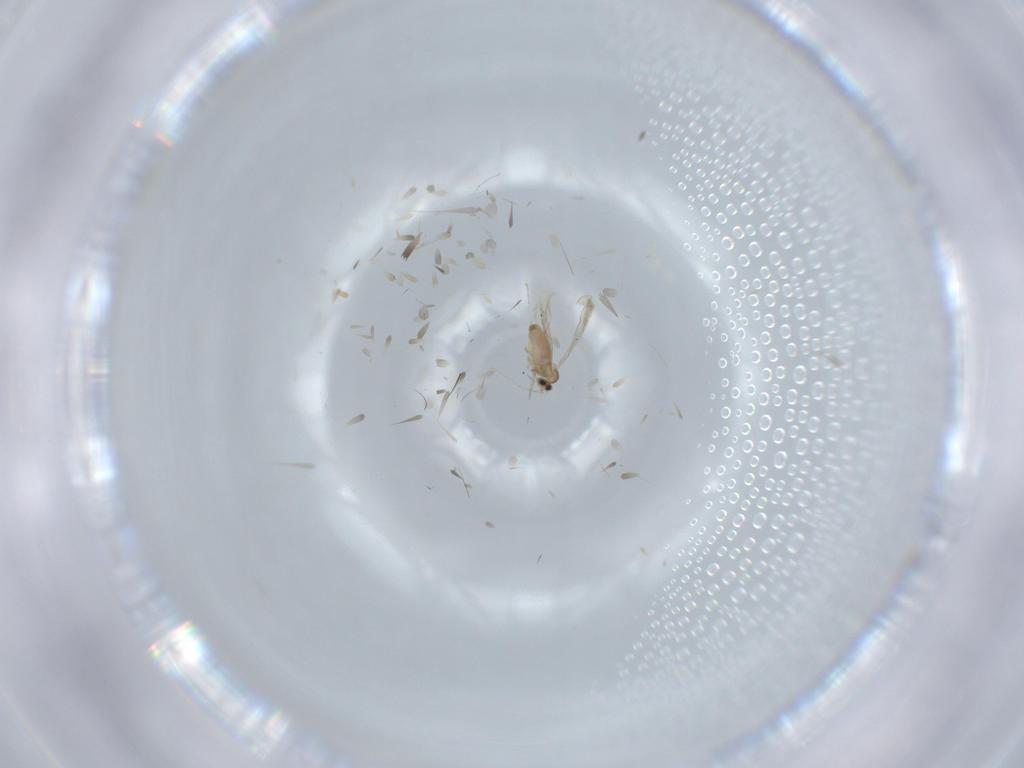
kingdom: Animalia
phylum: Arthropoda
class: Insecta
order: Diptera
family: Cecidomyiidae
